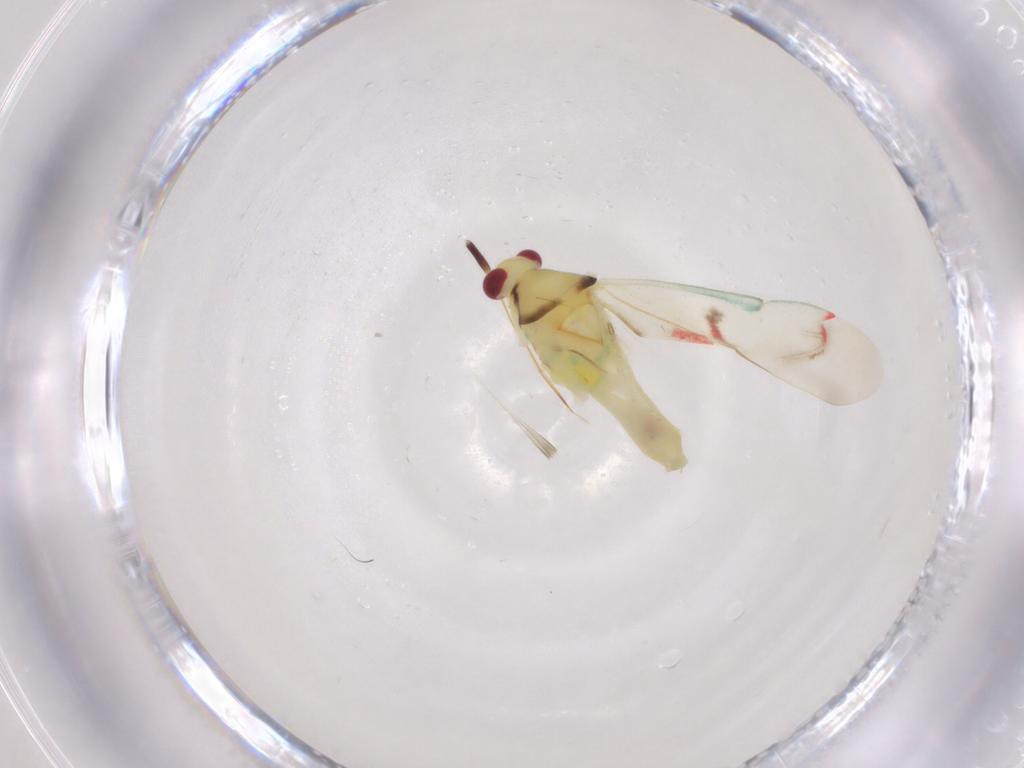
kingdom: Animalia
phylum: Arthropoda
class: Insecta
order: Hemiptera
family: Miridae
